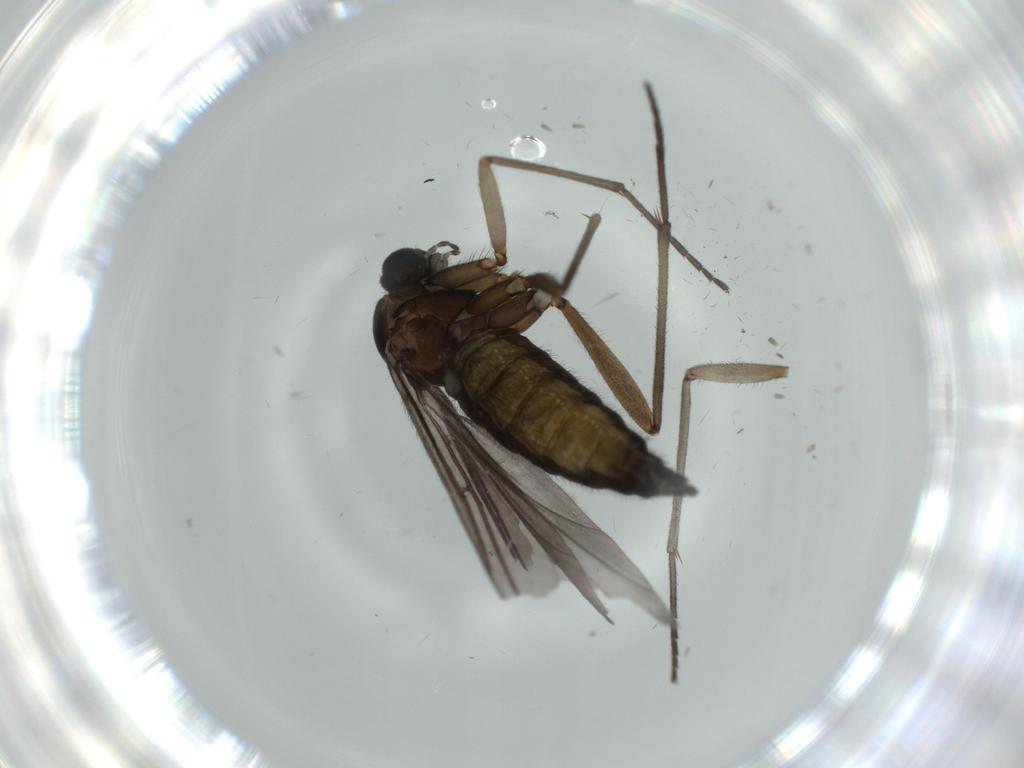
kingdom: Animalia
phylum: Arthropoda
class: Insecta
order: Diptera
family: Sciaridae
